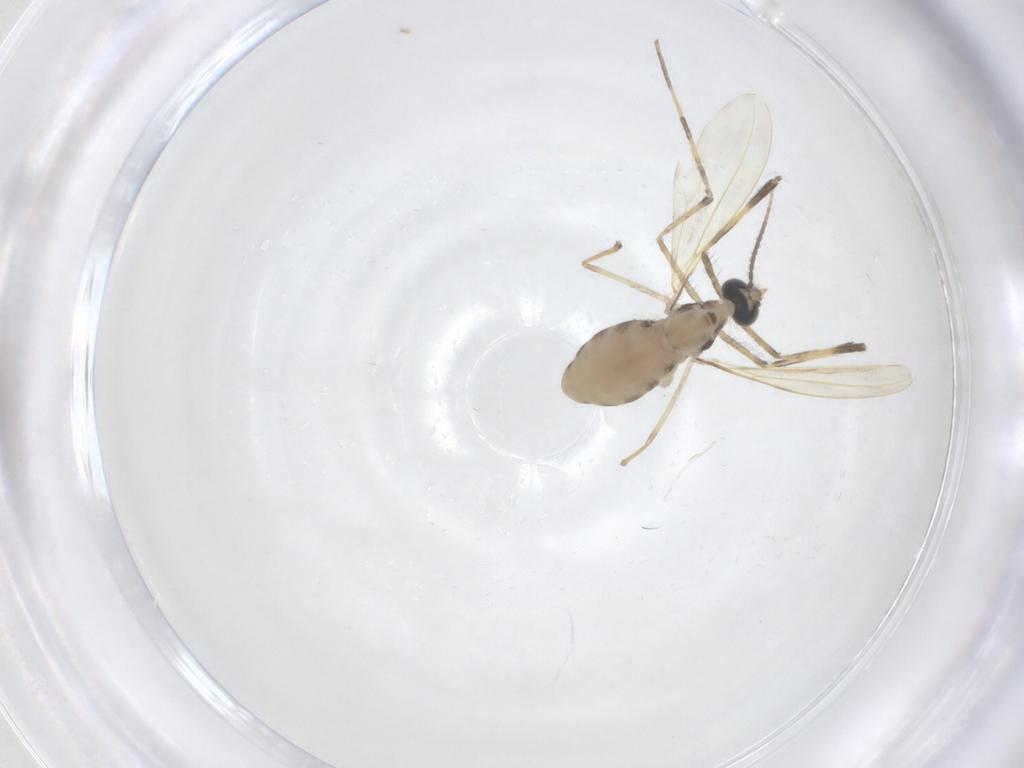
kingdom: Animalia
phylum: Arthropoda
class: Insecta
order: Diptera
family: Cecidomyiidae
